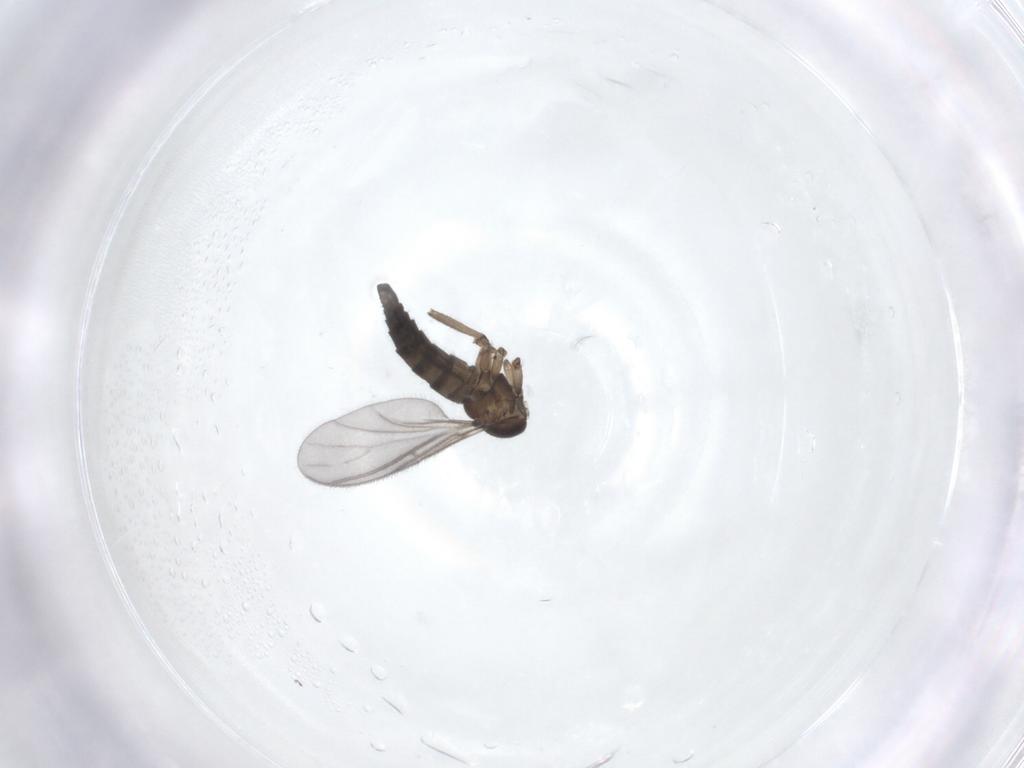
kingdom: Animalia
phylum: Arthropoda
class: Insecta
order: Diptera
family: Sciaridae
